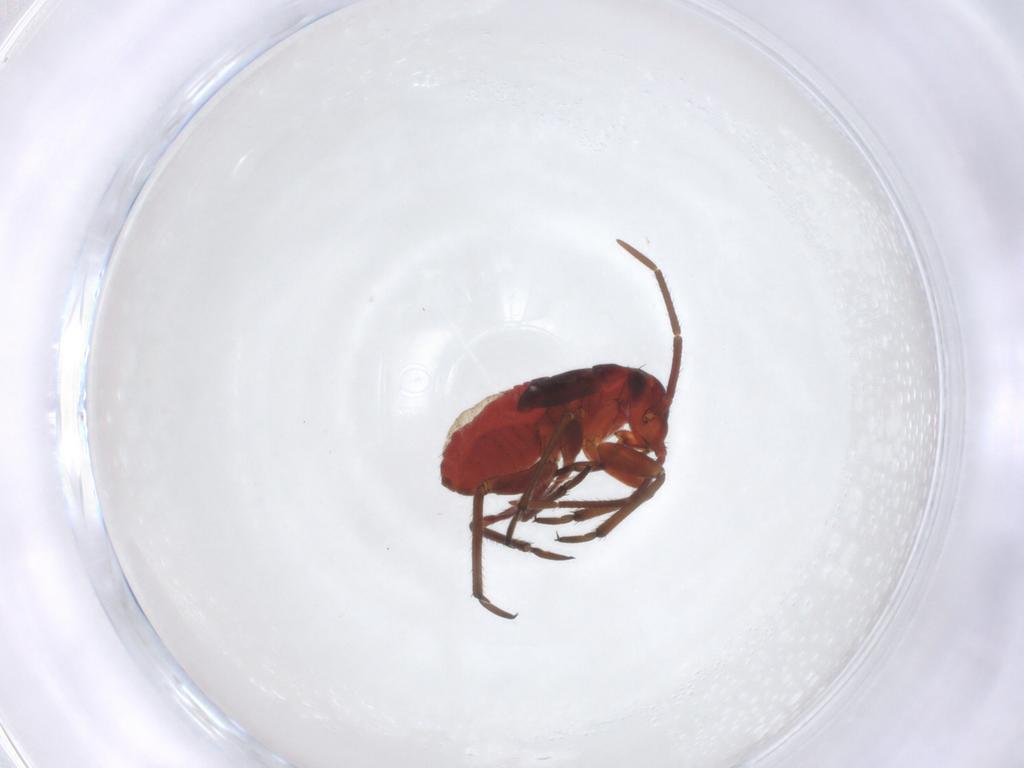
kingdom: Animalia
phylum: Arthropoda
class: Insecta
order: Hemiptera
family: Miridae
